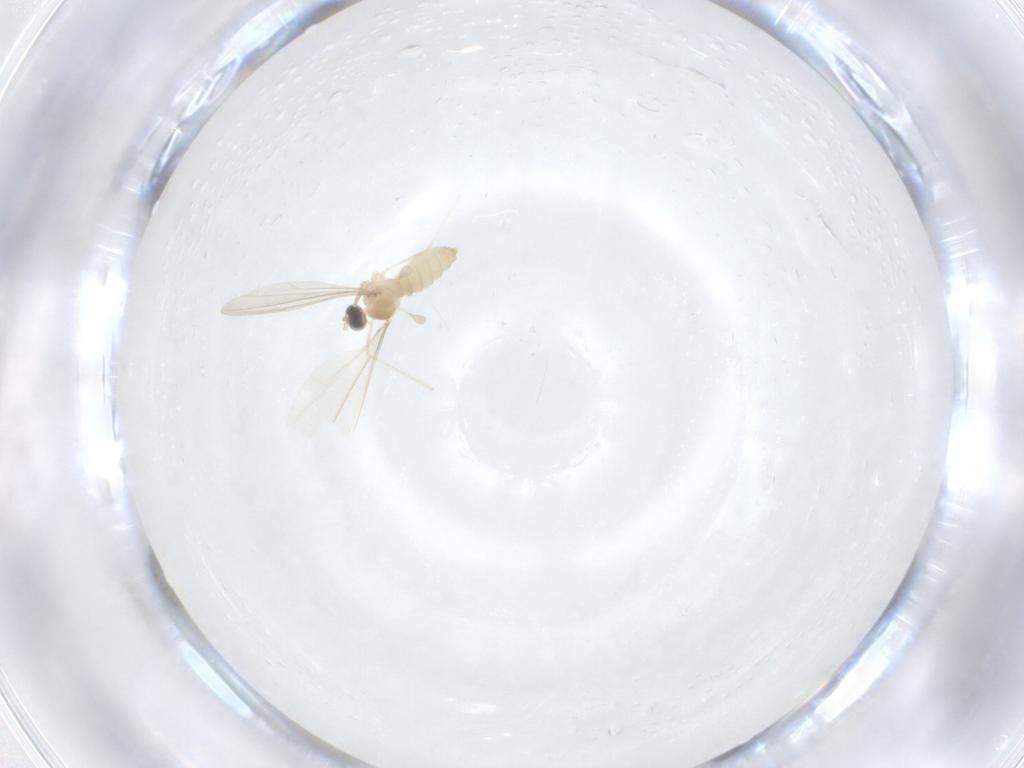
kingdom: Animalia
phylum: Arthropoda
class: Insecta
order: Diptera
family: Cecidomyiidae
